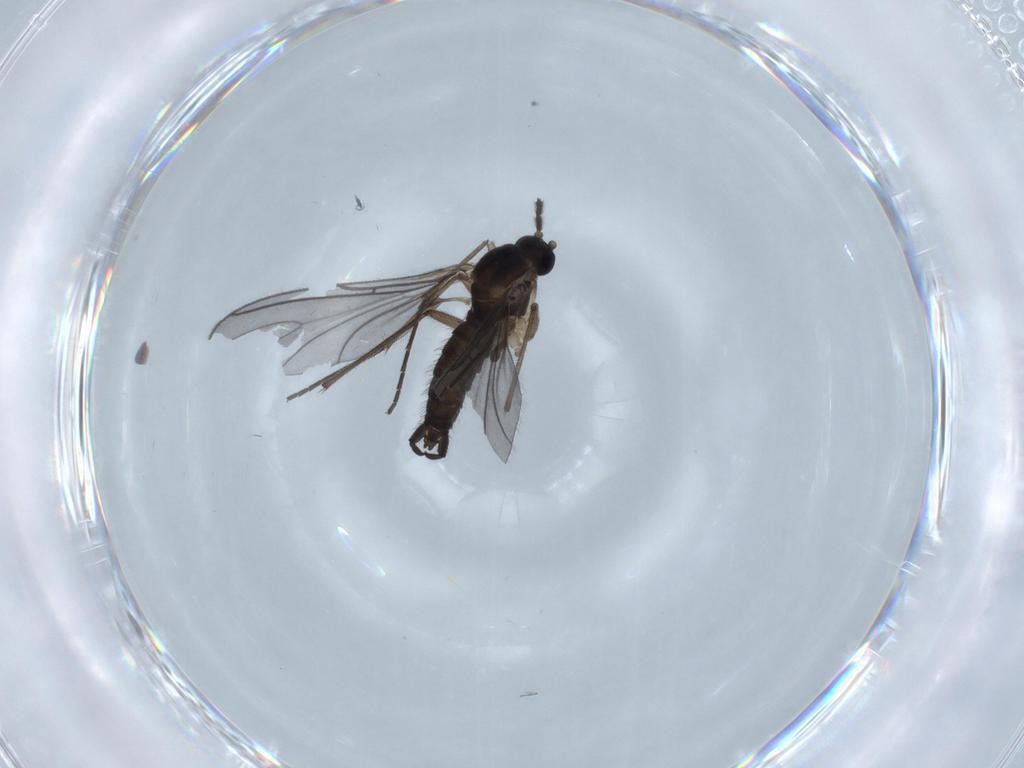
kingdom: Animalia
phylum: Arthropoda
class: Insecta
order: Diptera
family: Sciaridae
